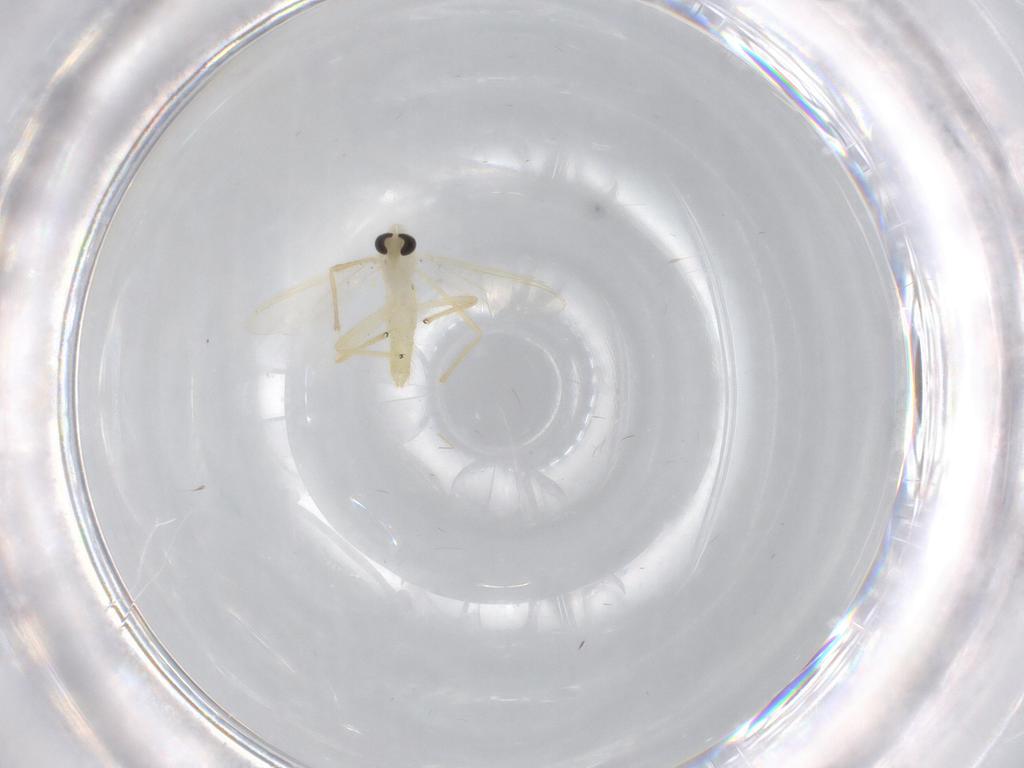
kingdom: Animalia
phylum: Arthropoda
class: Insecta
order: Diptera
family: Chironomidae
